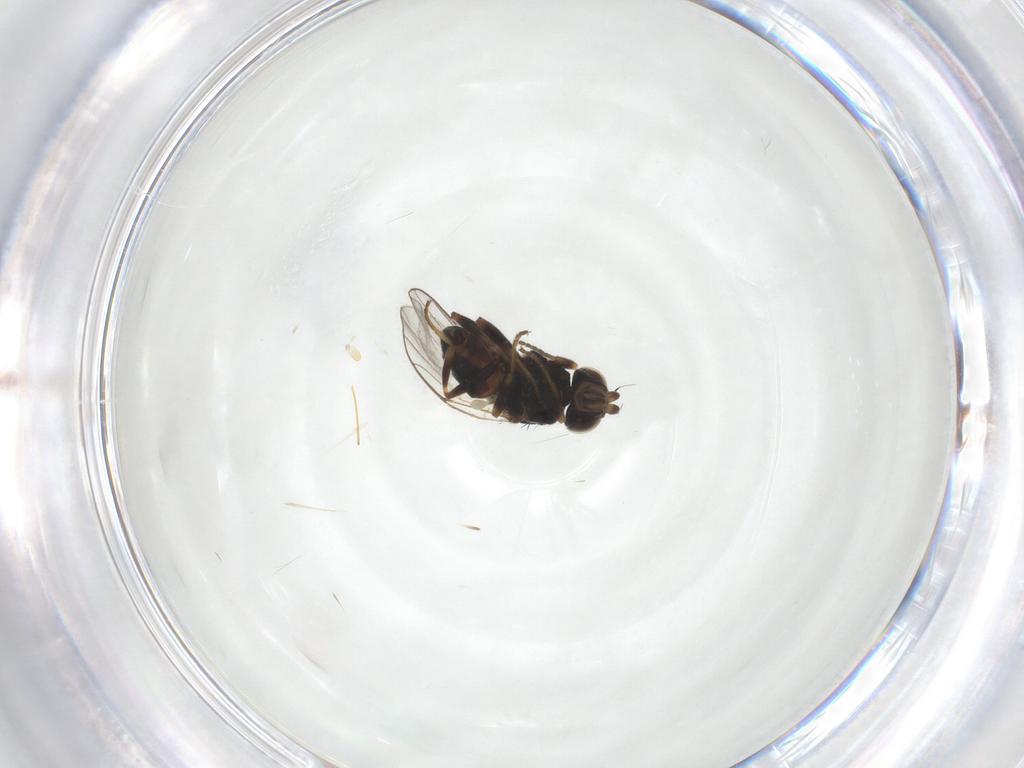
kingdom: Animalia
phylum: Arthropoda
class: Insecta
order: Diptera
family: Chloropidae
